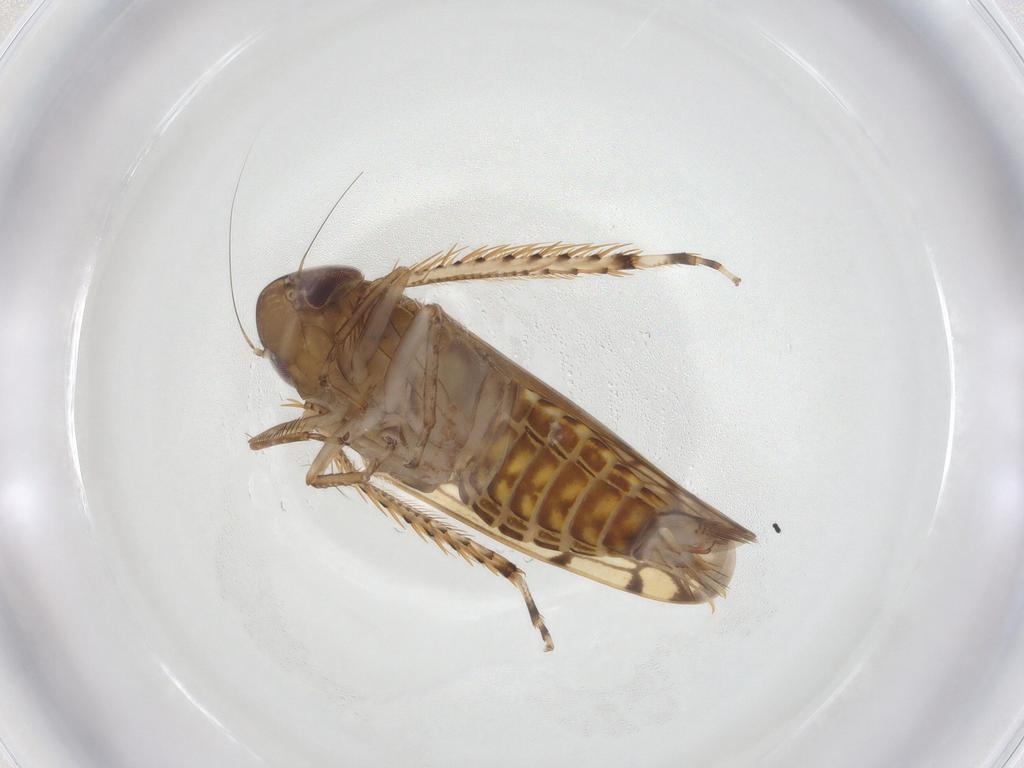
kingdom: Animalia
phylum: Arthropoda
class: Insecta
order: Hemiptera
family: Cicadellidae
